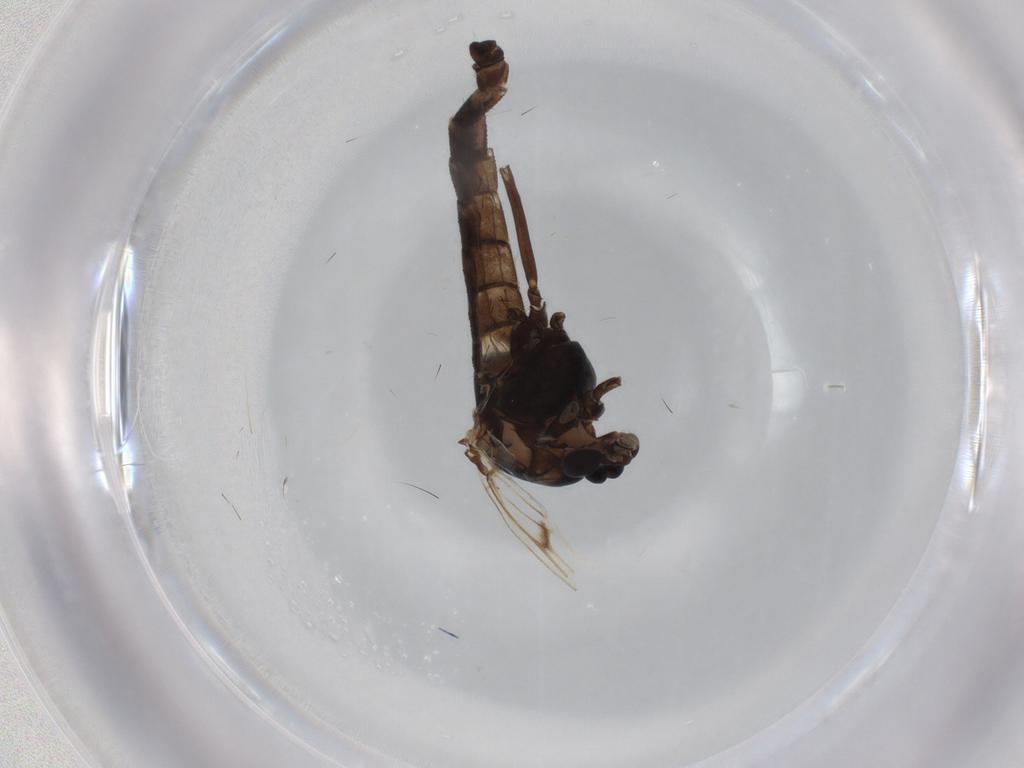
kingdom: Animalia
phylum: Arthropoda
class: Insecta
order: Diptera
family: Chironomidae
